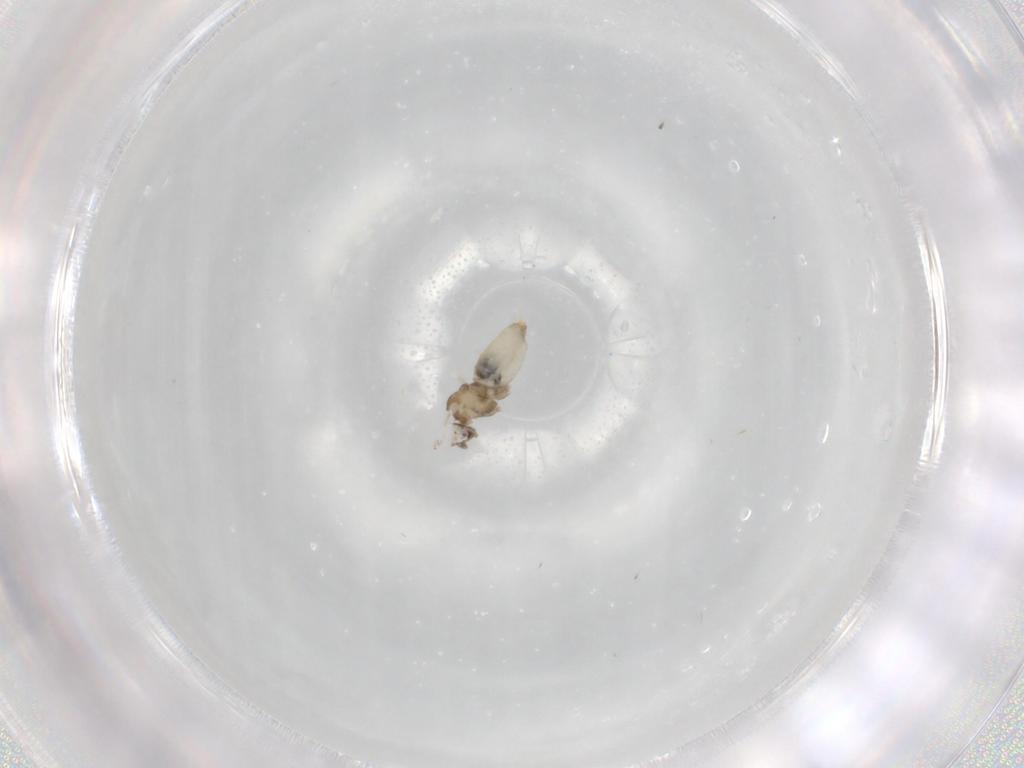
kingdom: Animalia
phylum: Arthropoda
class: Insecta
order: Diptera
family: Cecidomyiidae
